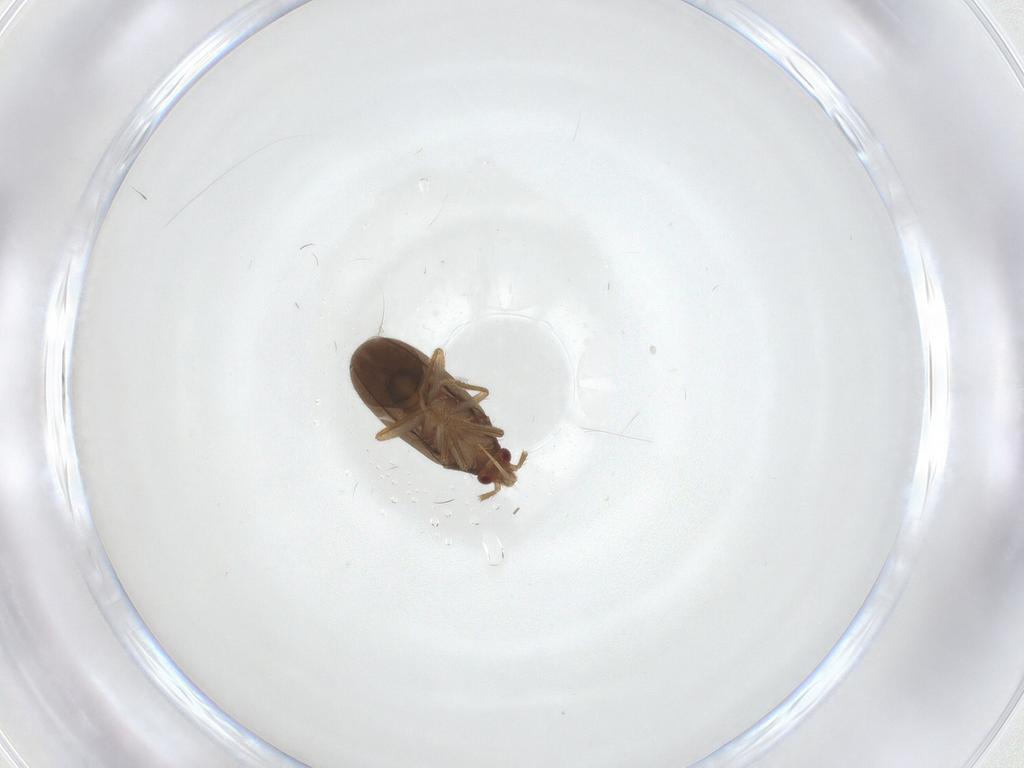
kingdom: Animalia
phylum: Arthropoda
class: Insecta
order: Hemiptera
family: Ceratocombidae
